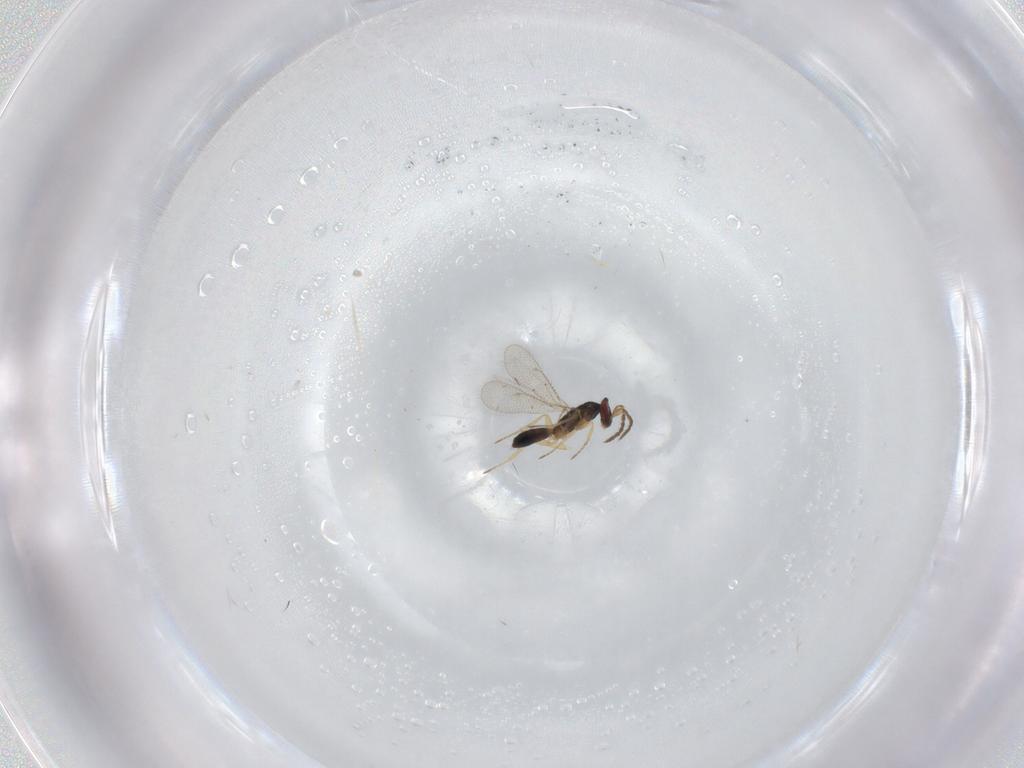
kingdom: Animalia
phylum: Arthropoda
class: Insecta
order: Hymenoptera
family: Eulophidae
